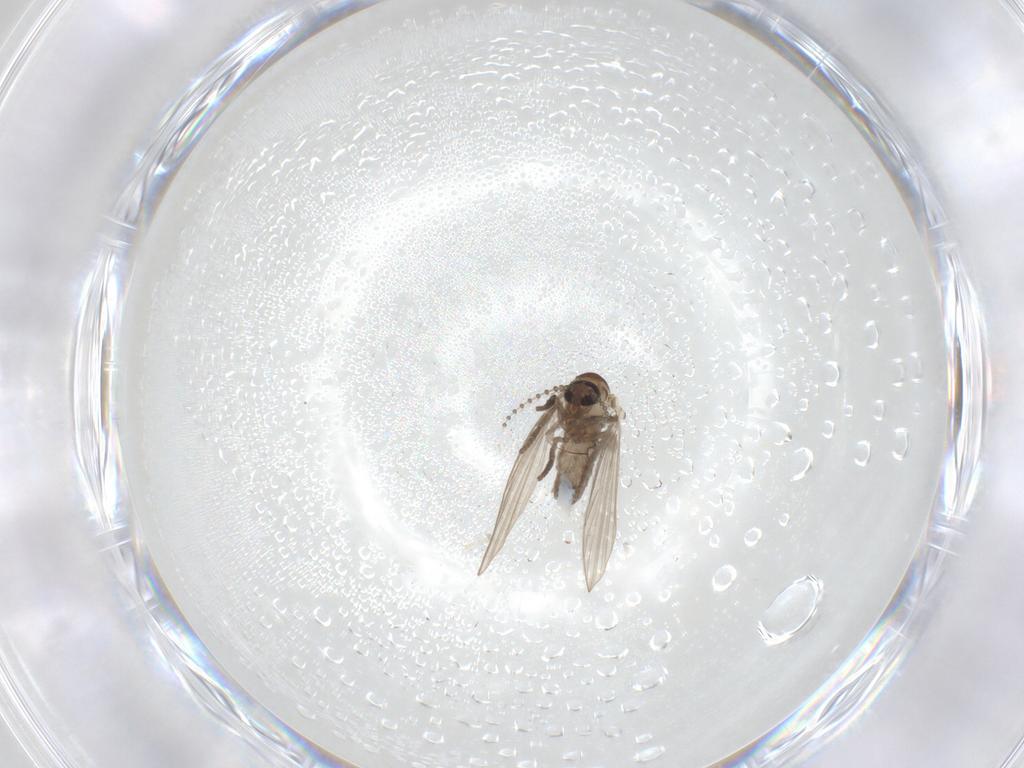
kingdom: Animalia
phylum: Arthropoda
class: Insecta
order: Diptera
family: Psychodidae
